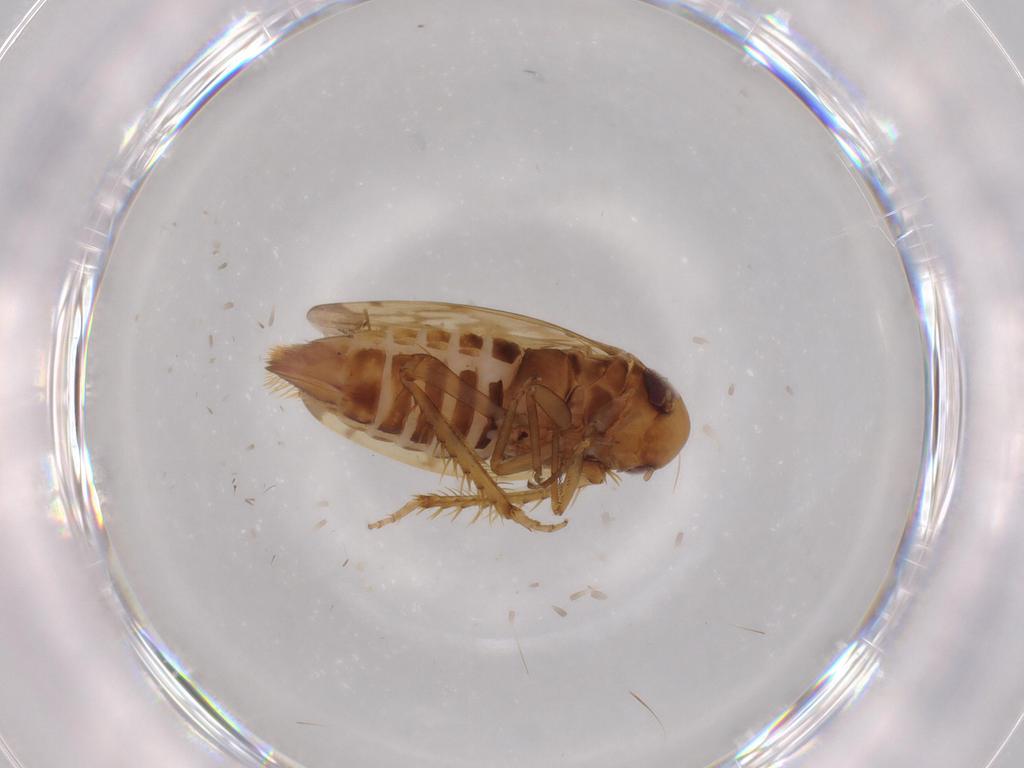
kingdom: Animalia
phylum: Arthropoda
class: Insecta
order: Hemiptera
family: Cicadellidae
